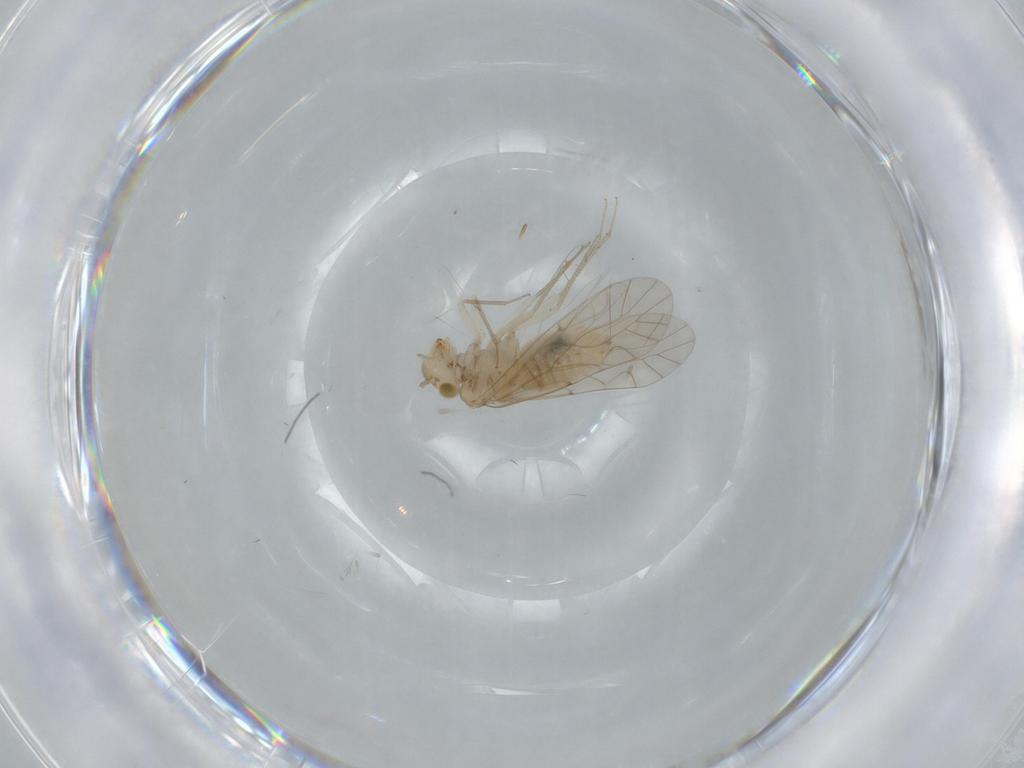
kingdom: Animalia
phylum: Arthropoda
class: Insecta
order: Psocodea
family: Lachesillidae
